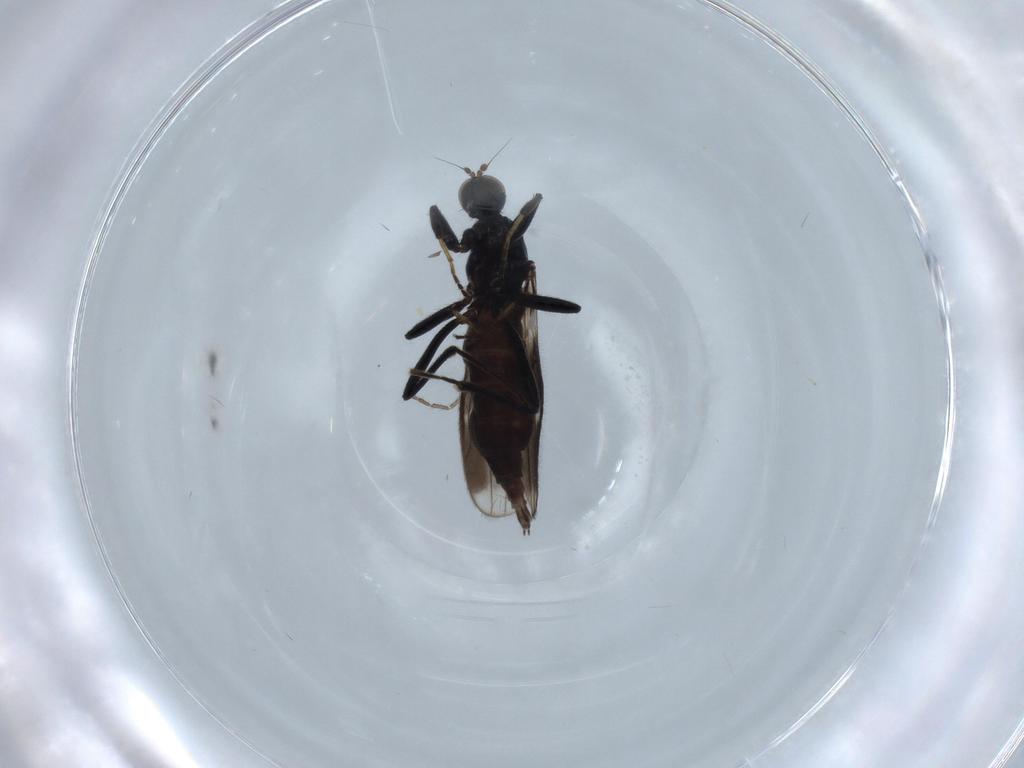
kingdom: Animalia
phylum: Arthropoda
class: Insecta
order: Diptera
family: Hybotidae
